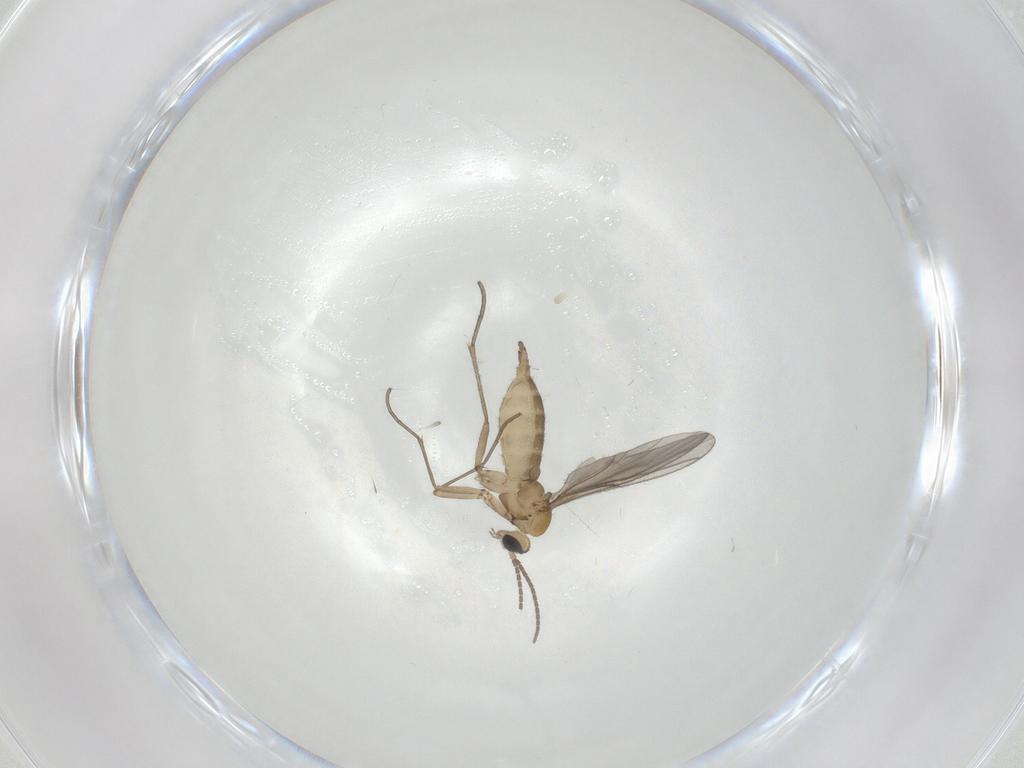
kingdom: Animalia
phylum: Arthropoda
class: Insecta
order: Diptera
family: Sciaridae
